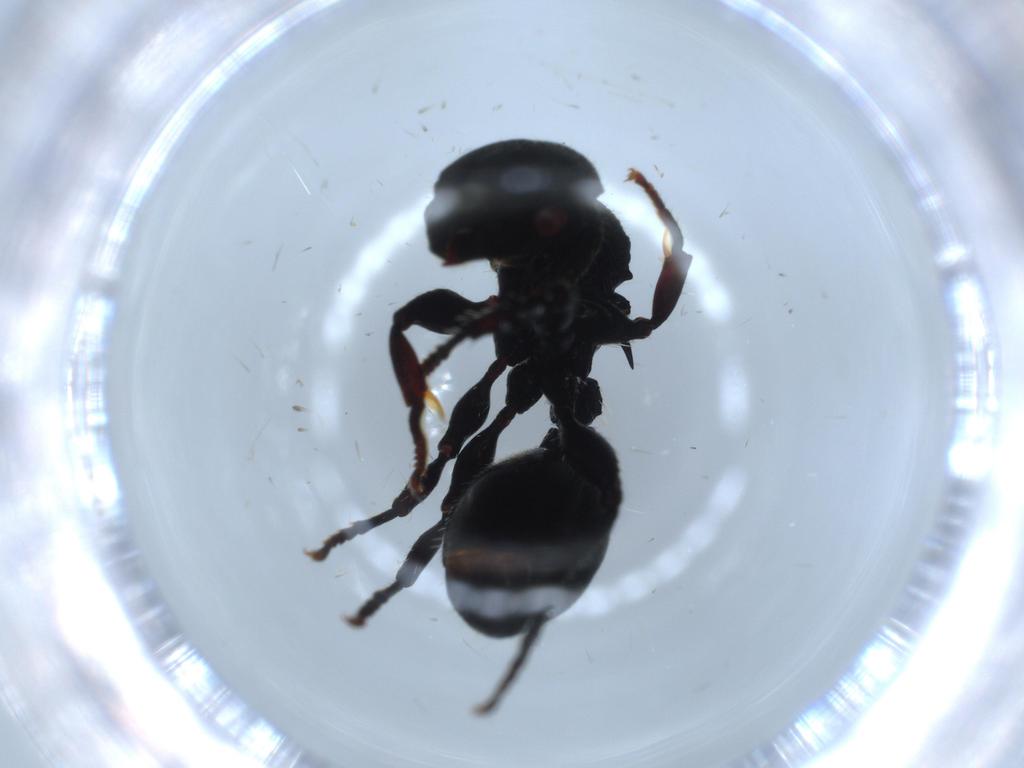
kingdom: Animalia
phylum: Arthropoda
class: Insecta
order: Hymenoptera
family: Formicidae
